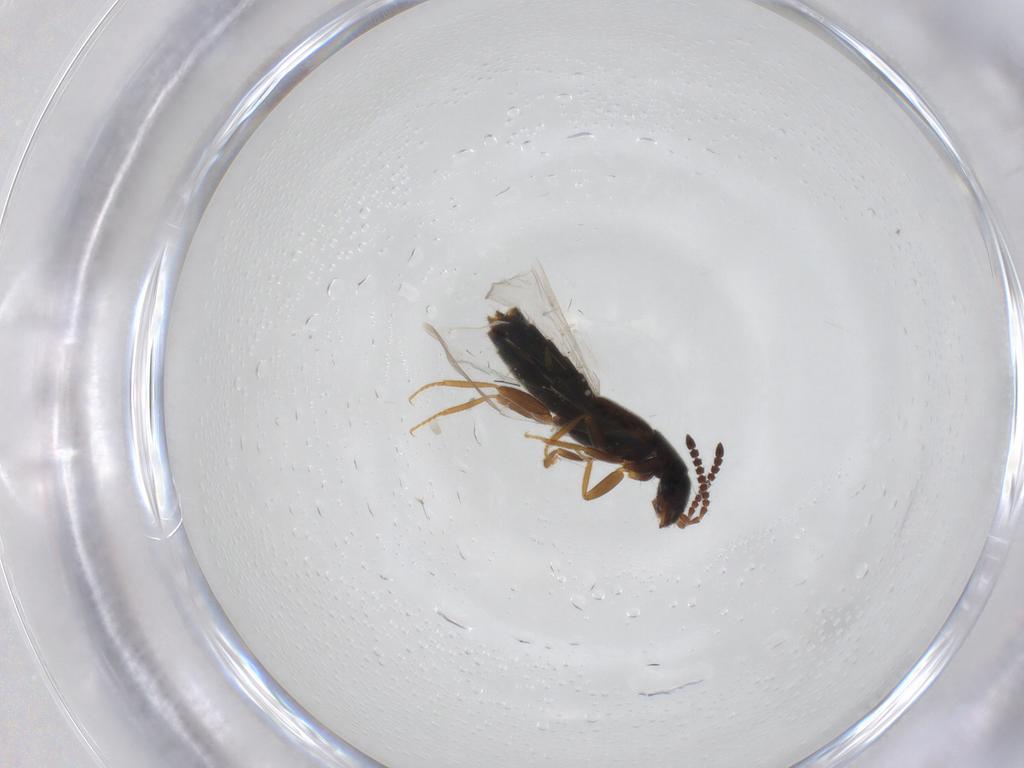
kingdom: Animalia
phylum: Arthropoda
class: Insecta
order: Coleoptera
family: Staphylinidae
